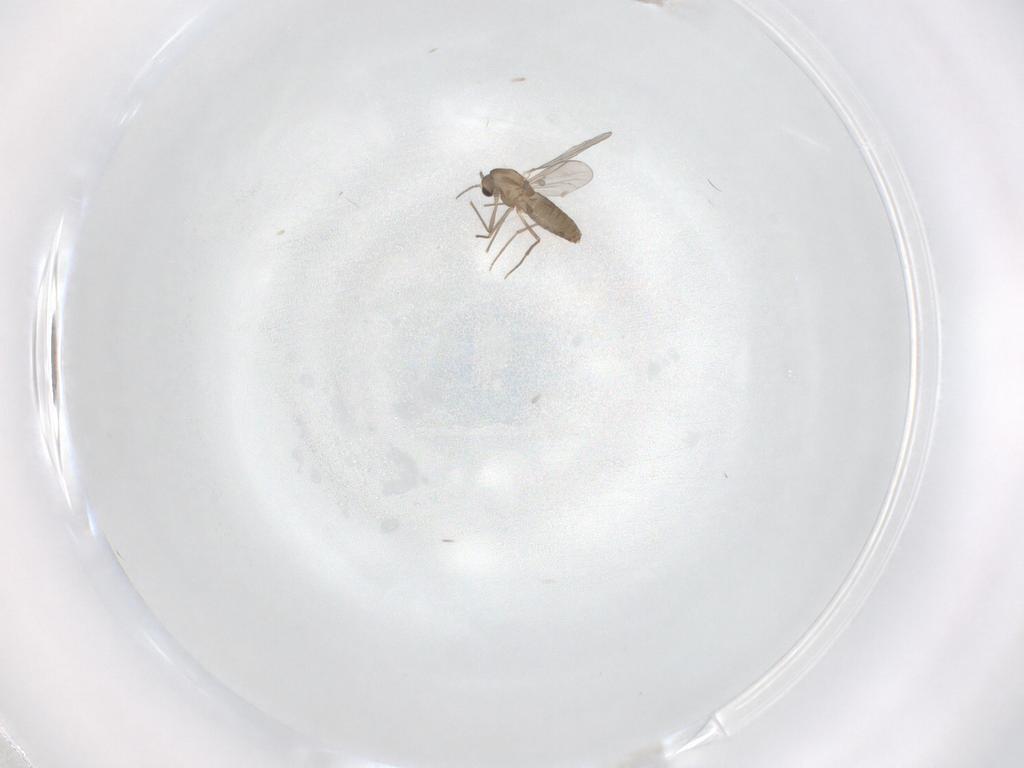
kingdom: Animalia
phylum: Arthropoda
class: Insecta
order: Diptera
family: Chironomidae
